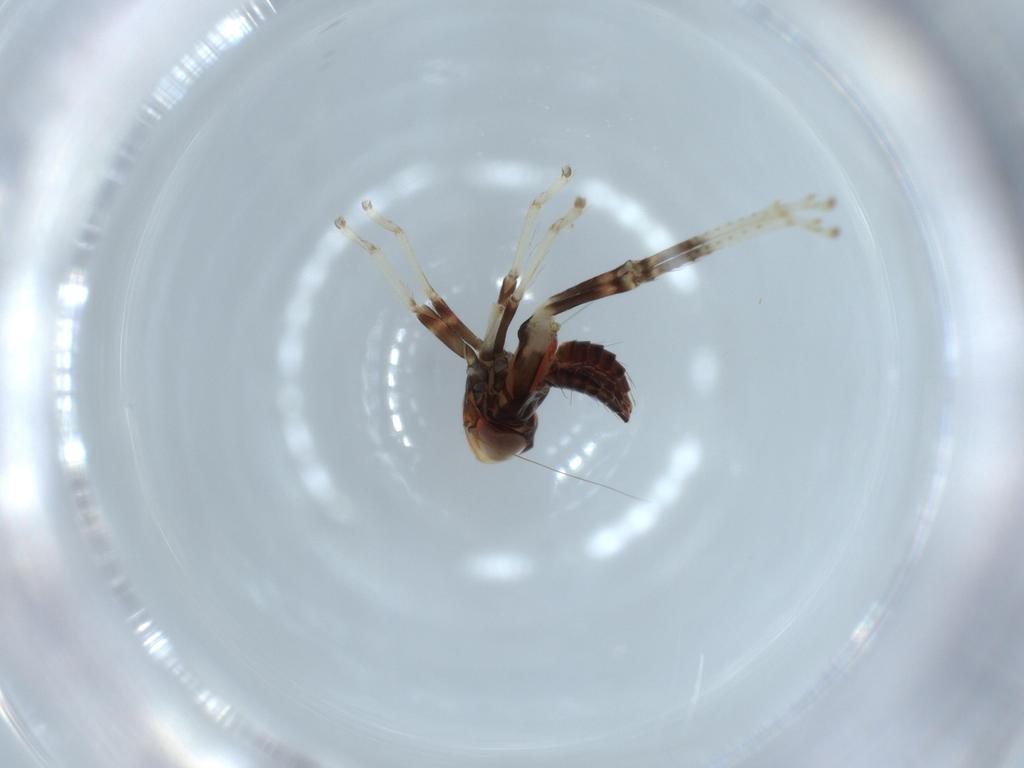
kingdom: Animalia
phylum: Arthropoda
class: Insecta
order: Hemiptera
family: Cicadellidae
